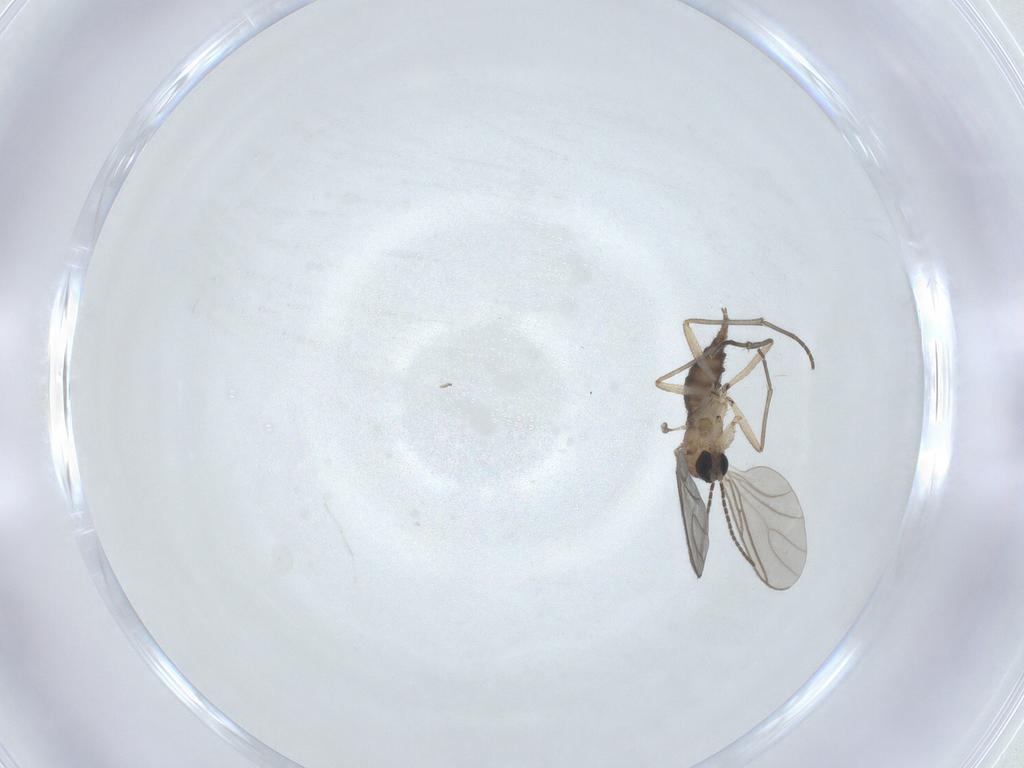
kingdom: Animalia
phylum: Arthropoda
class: Insecta
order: Diptera
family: Sciaridae
